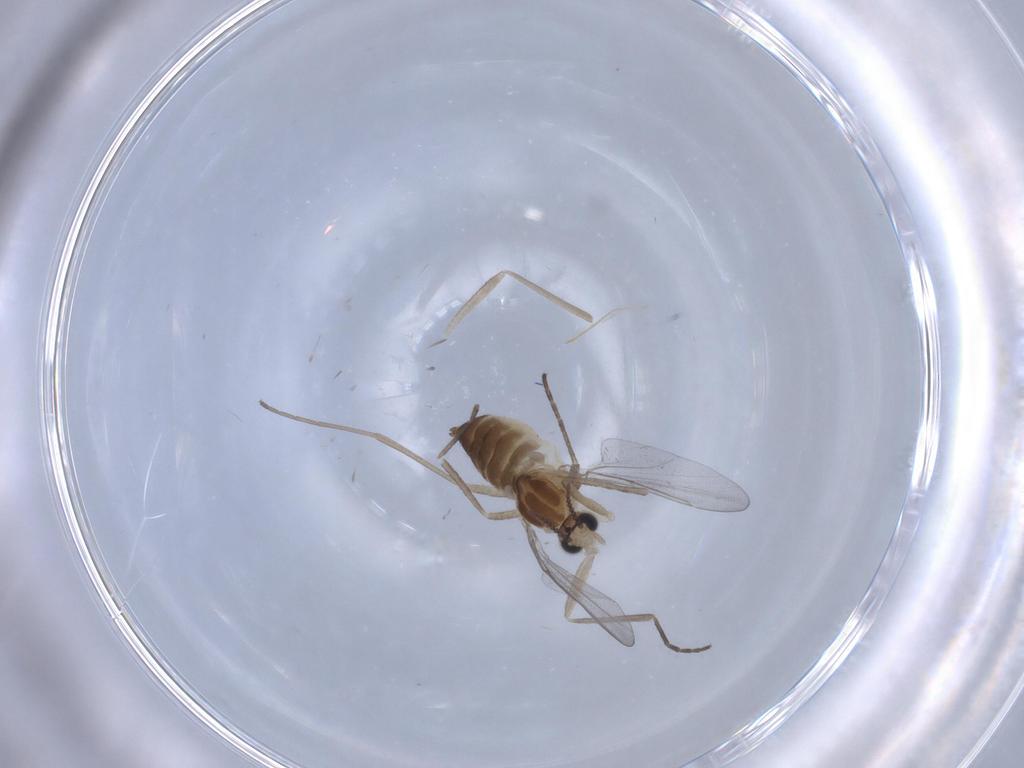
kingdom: Animalia
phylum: Arthropoda
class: Insecta
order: Diptera
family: Cecidomyiidae
